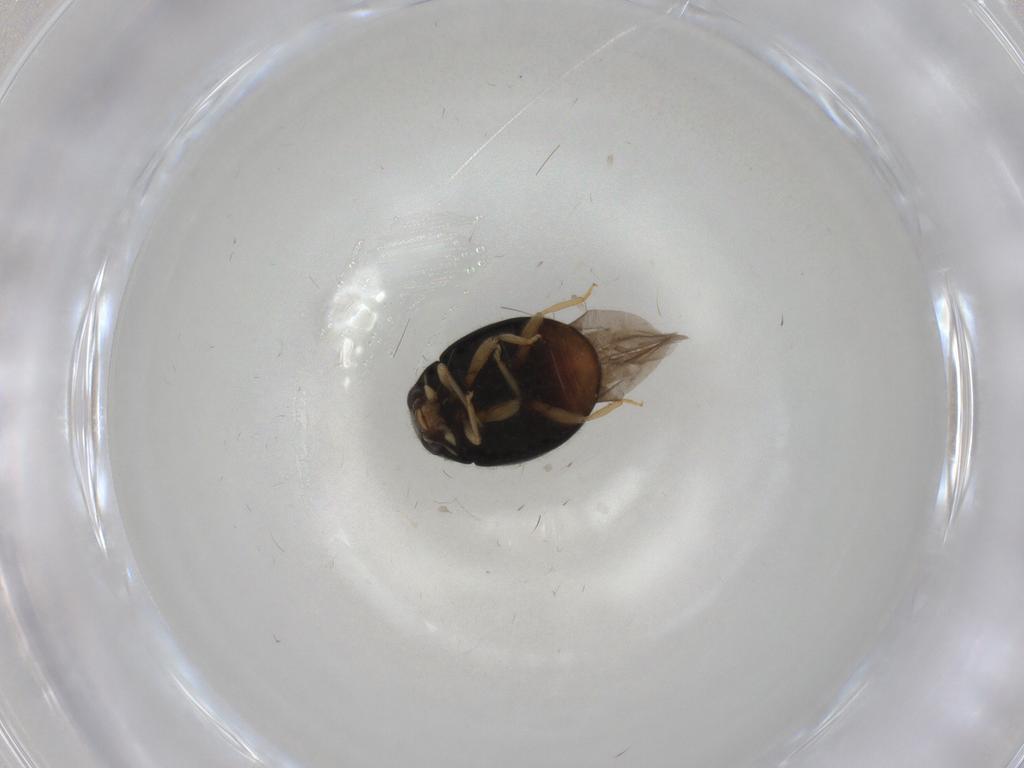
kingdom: Animalia
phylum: Arthropoda
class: Insecta
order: Coleoptera
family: Coccinellidae
